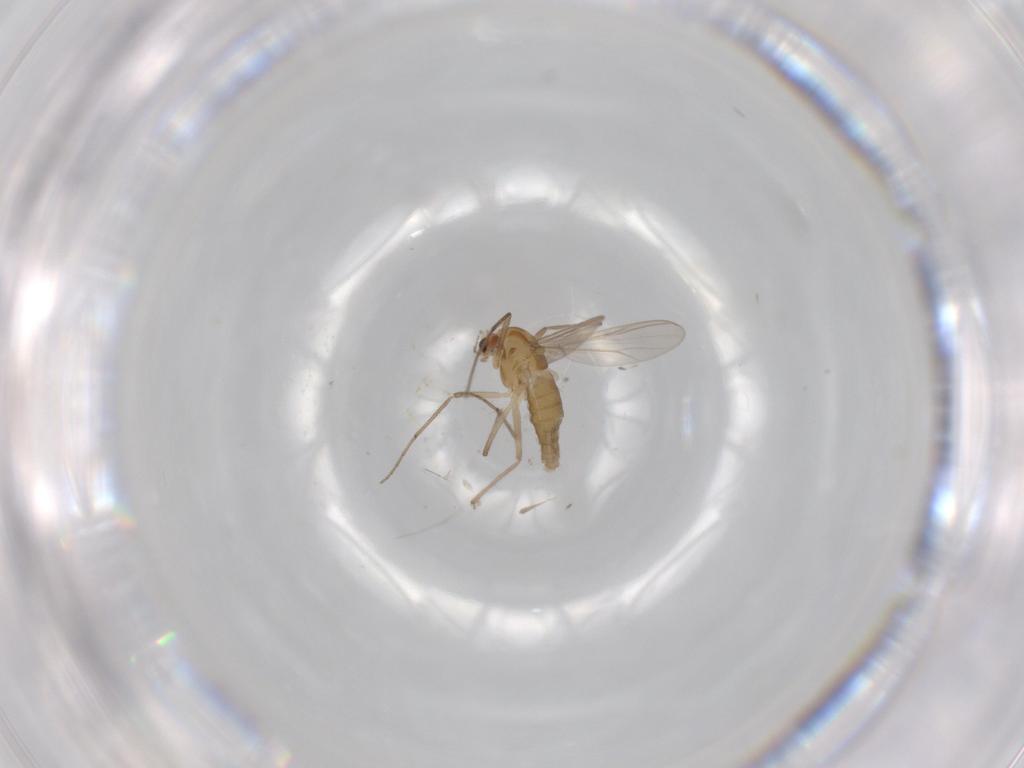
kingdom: Animalia
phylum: Arthropoda
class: Insecta
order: Diptera
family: Chironomidae
